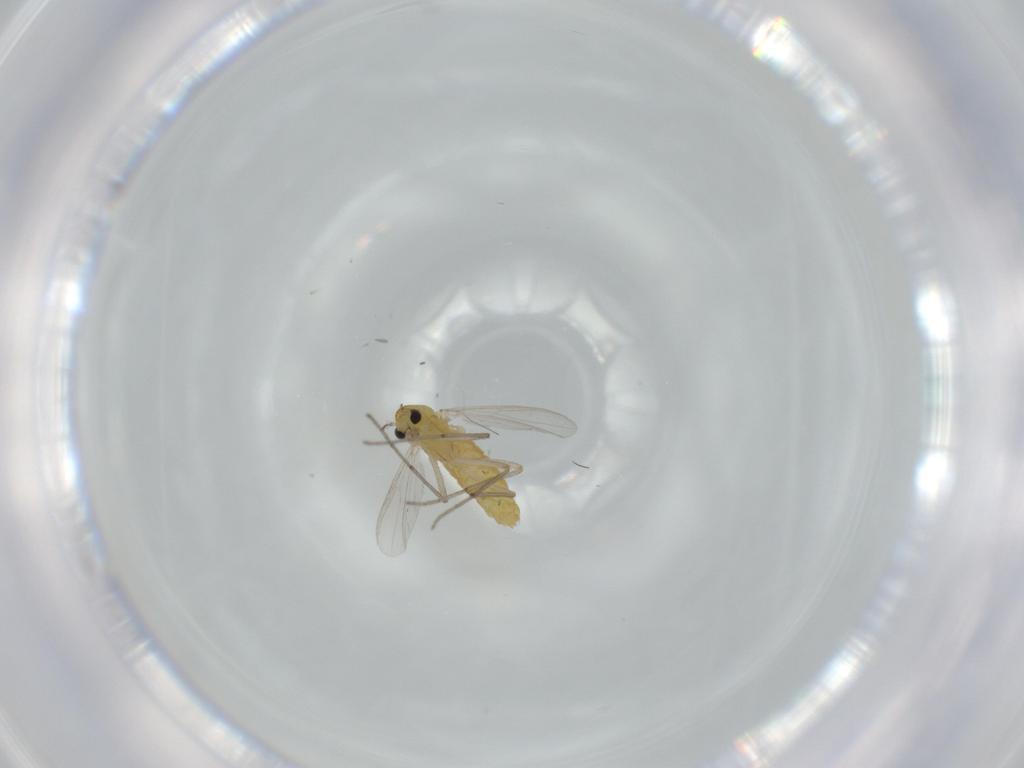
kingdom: Animalia
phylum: Arthropoda
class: Insecta
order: Diptera
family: Chironomidae
